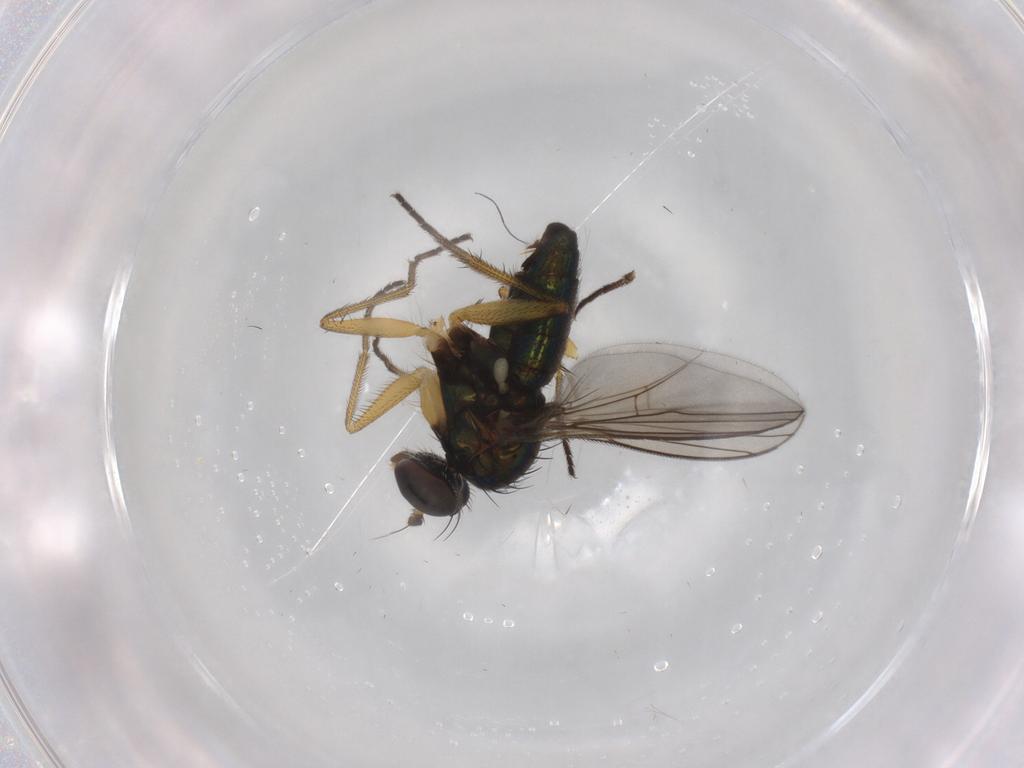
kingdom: Animalia
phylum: Arthropoda
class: Insecta
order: Diptera
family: Psychodidae
